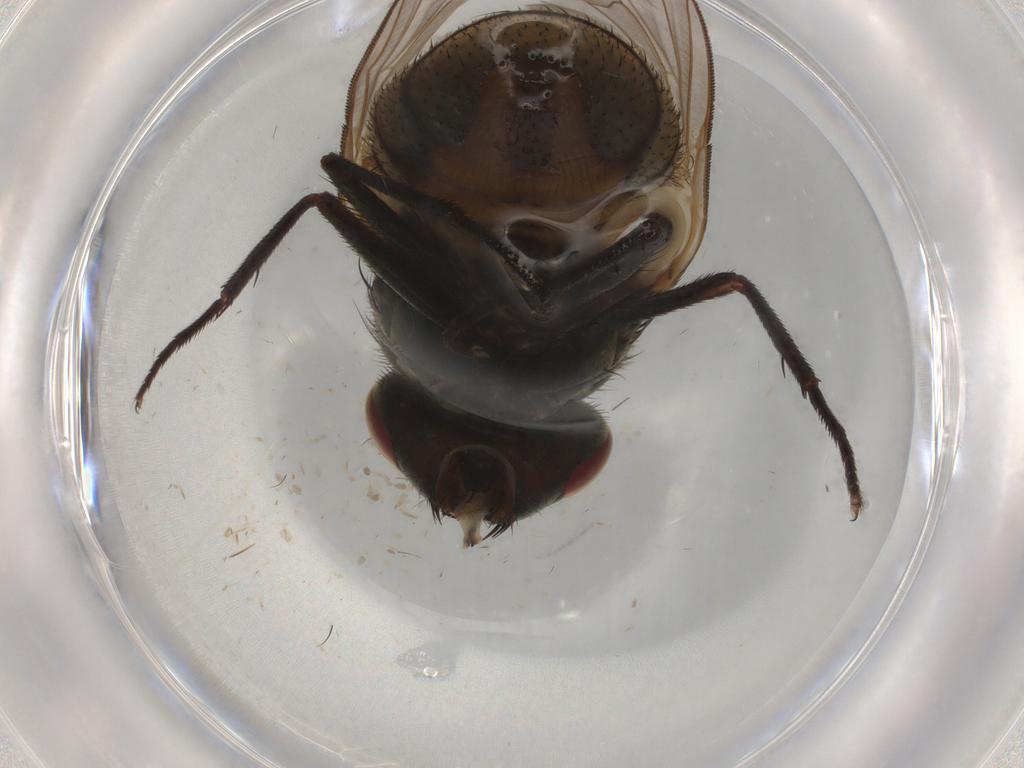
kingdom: Animalia
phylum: Arthropoda
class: Insecta
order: Diptera
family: Phoridae
